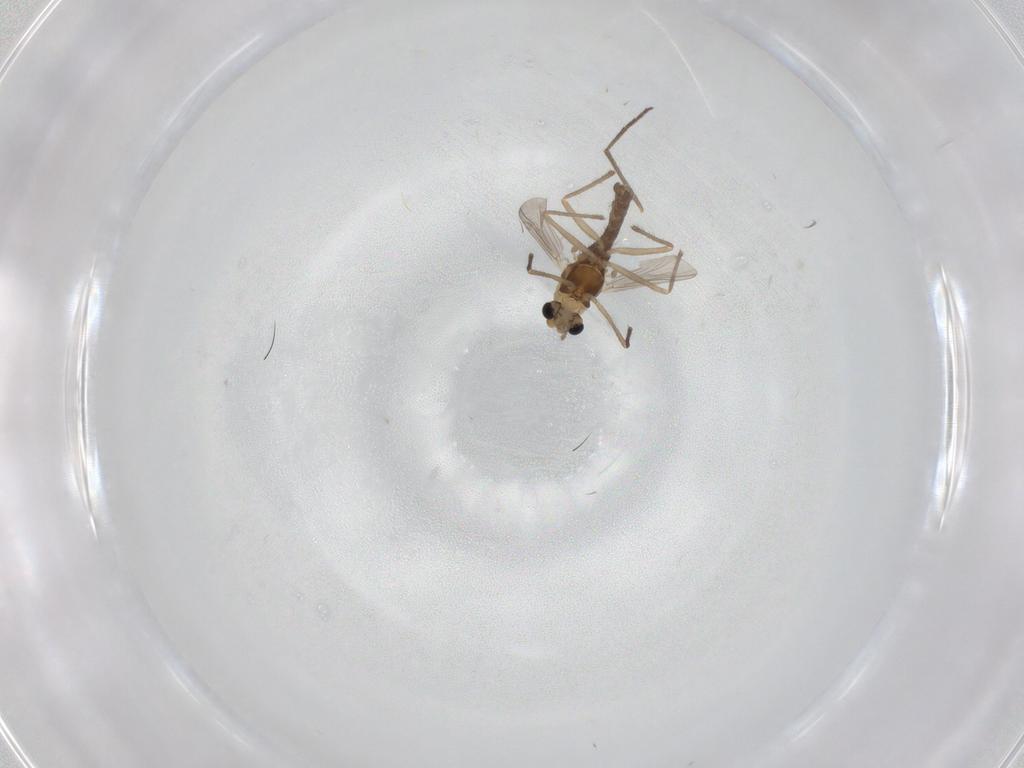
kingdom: Animalia
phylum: Arthropoda
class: Insecta
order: Diptera
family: Chironomidae
